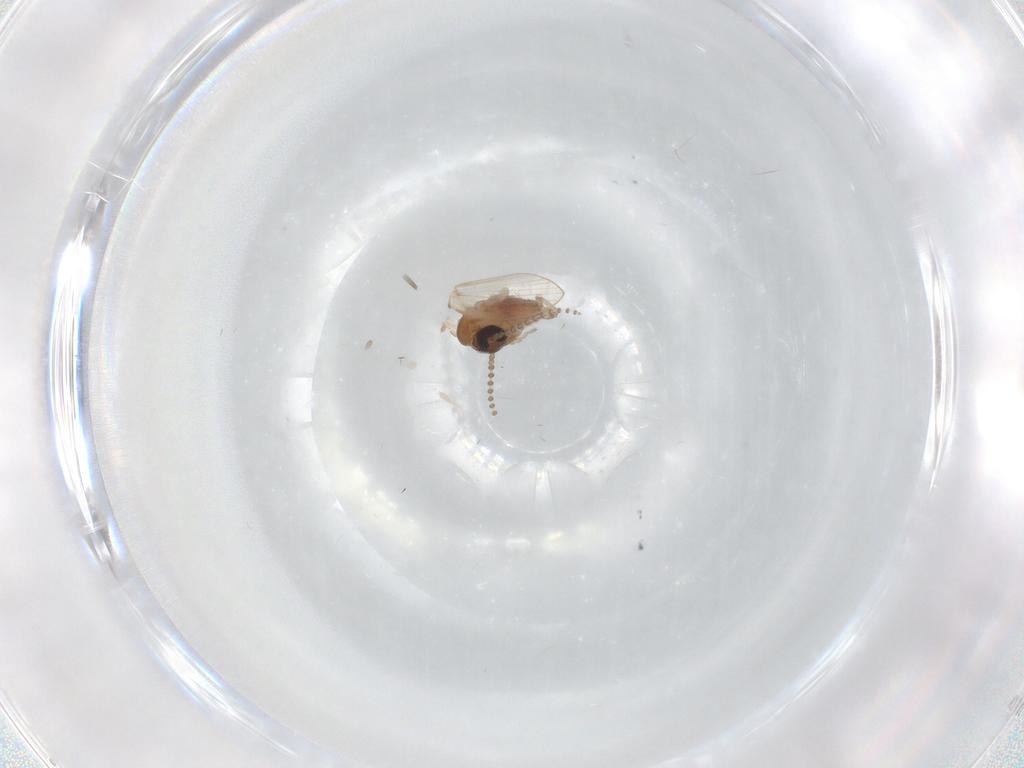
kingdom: Animalia
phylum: Arthropoda
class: Insecta
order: Diptera
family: Psychodidae
